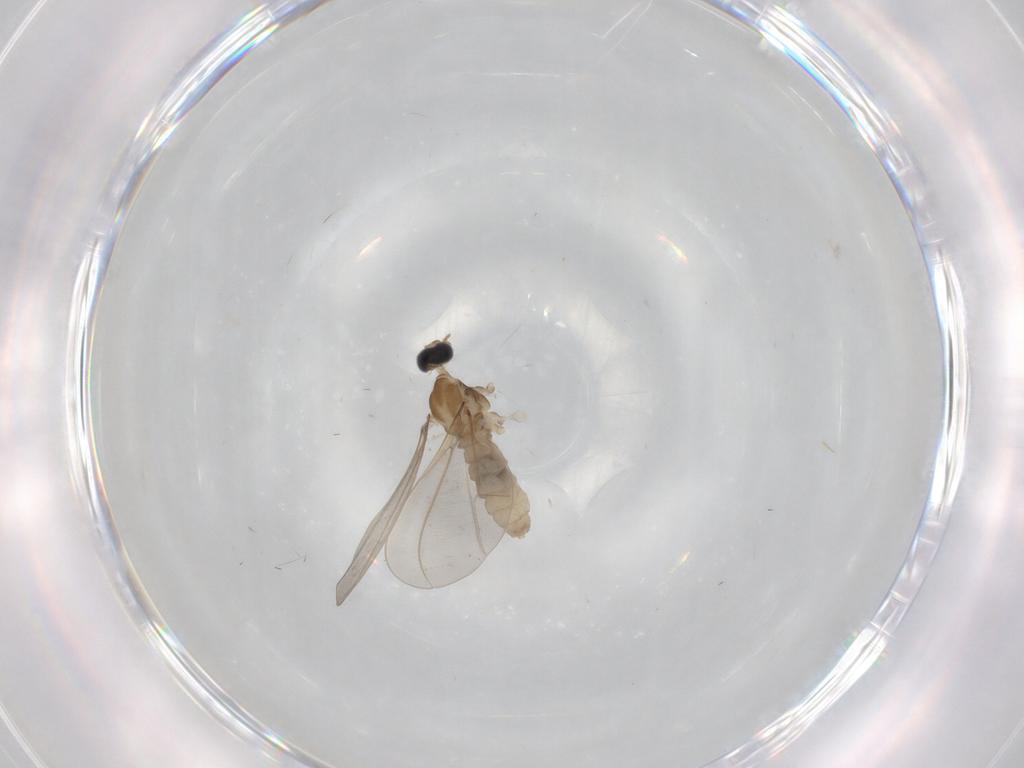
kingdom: Animalia
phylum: Arthropoda
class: Insecta
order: Diptera
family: Cecidomyiidae
